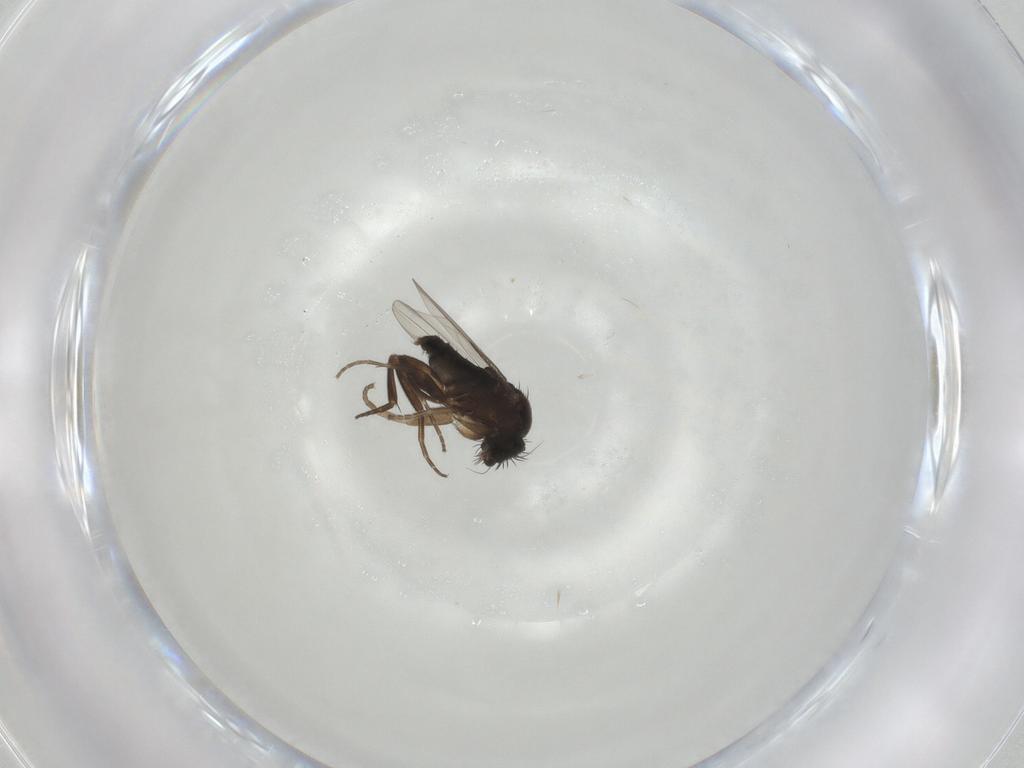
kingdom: Animalia
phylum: Arthropoda
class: Insecta
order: Diptera
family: Phoridae
